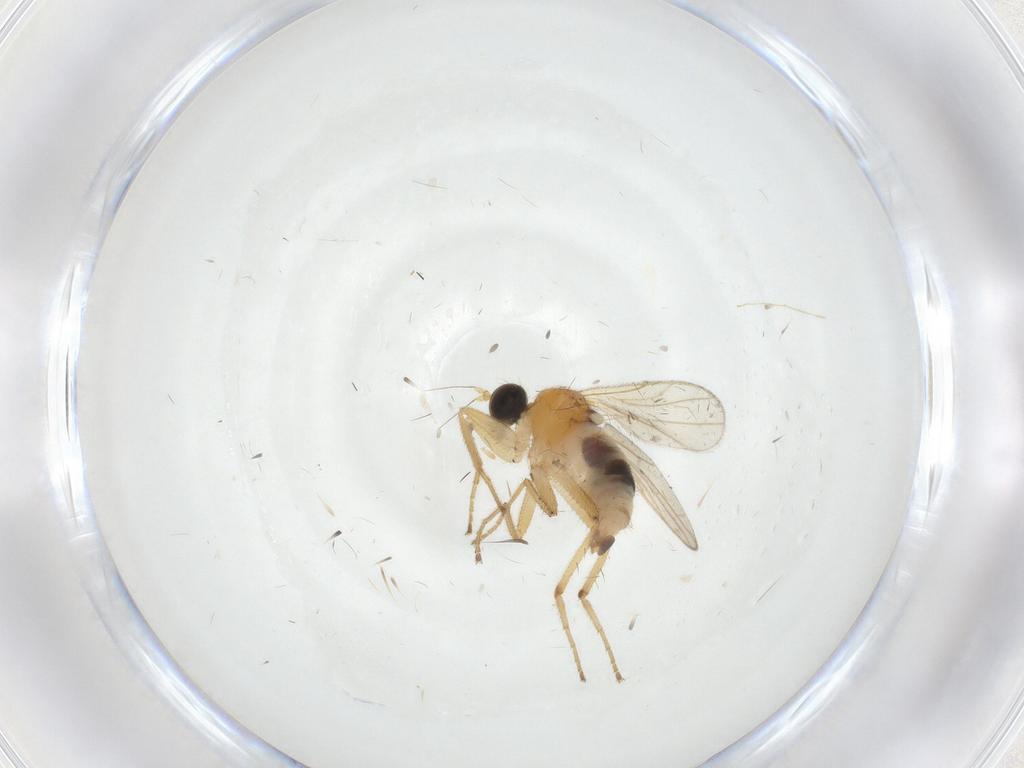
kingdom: Animalia
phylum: Arthropoda
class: Insecta
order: Diptera
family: Hybotidae
